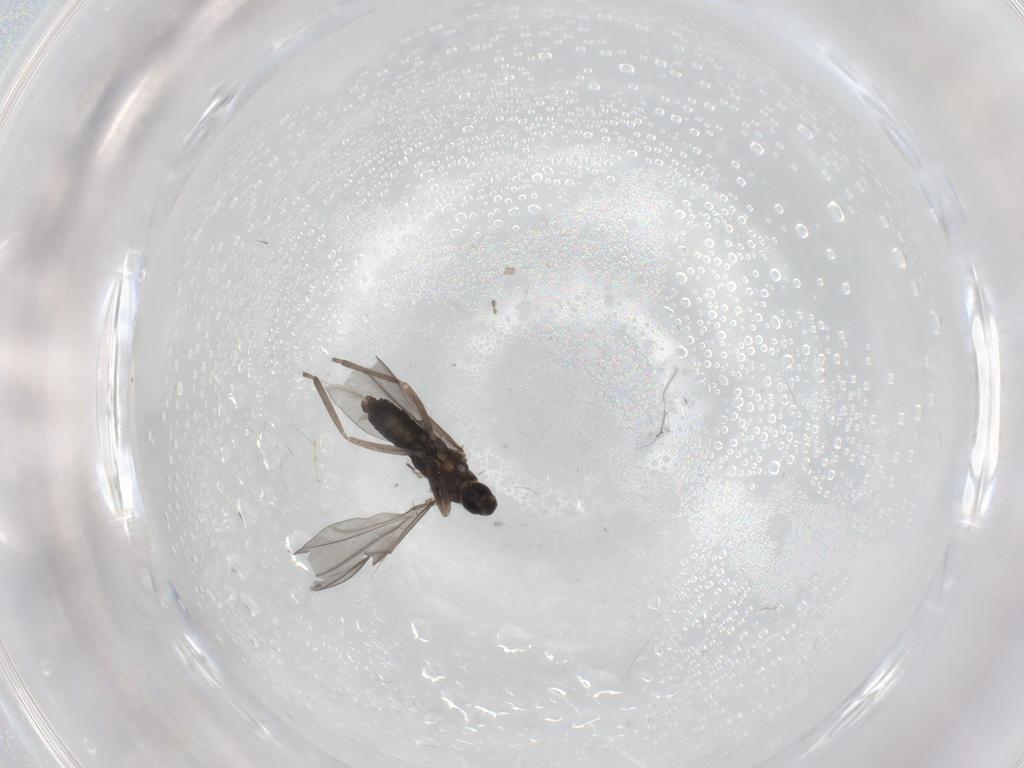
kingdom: Animalia
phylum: Arthropoda
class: Insecta
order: Diptera
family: Cecidomyiidae
